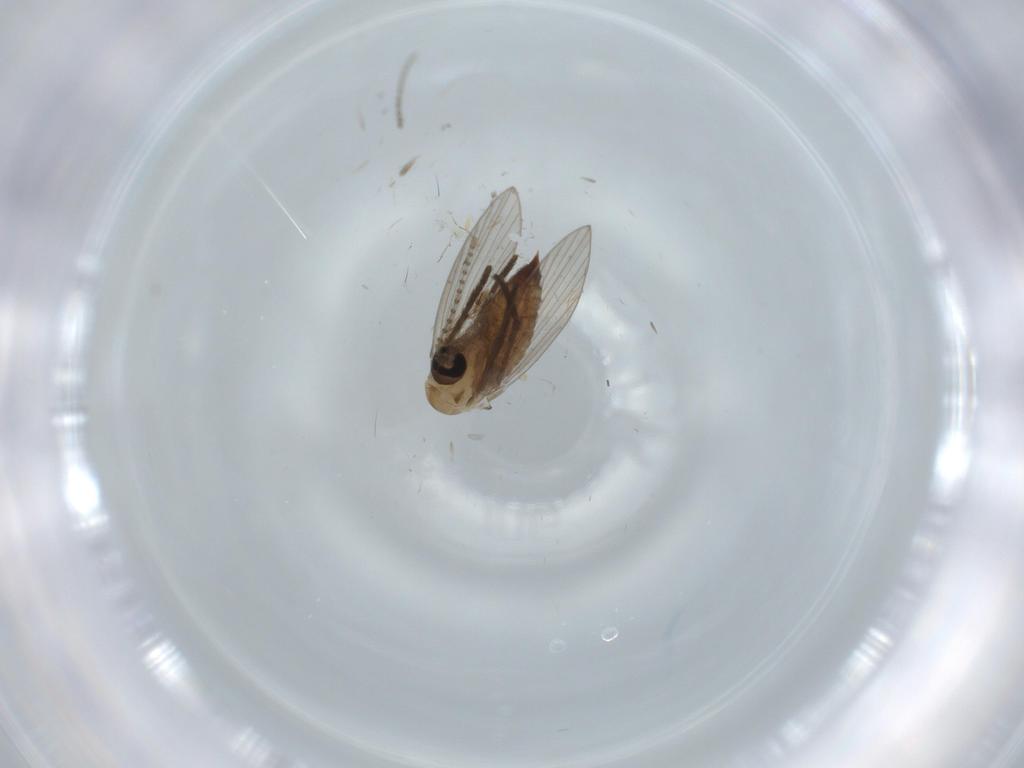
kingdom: Animalia
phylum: Arthropoda
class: Insecta
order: Diptera
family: Psychodidae
